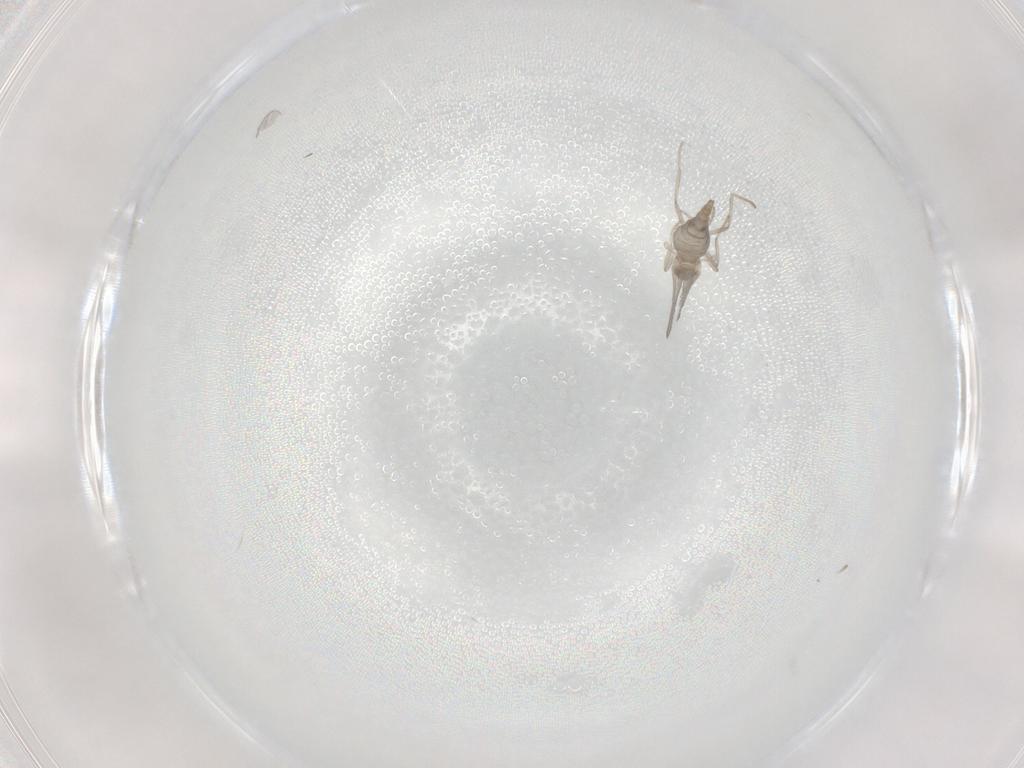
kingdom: Animalia
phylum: Arthropoda
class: Insecta
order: Diptera
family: Cecidomyiidae
